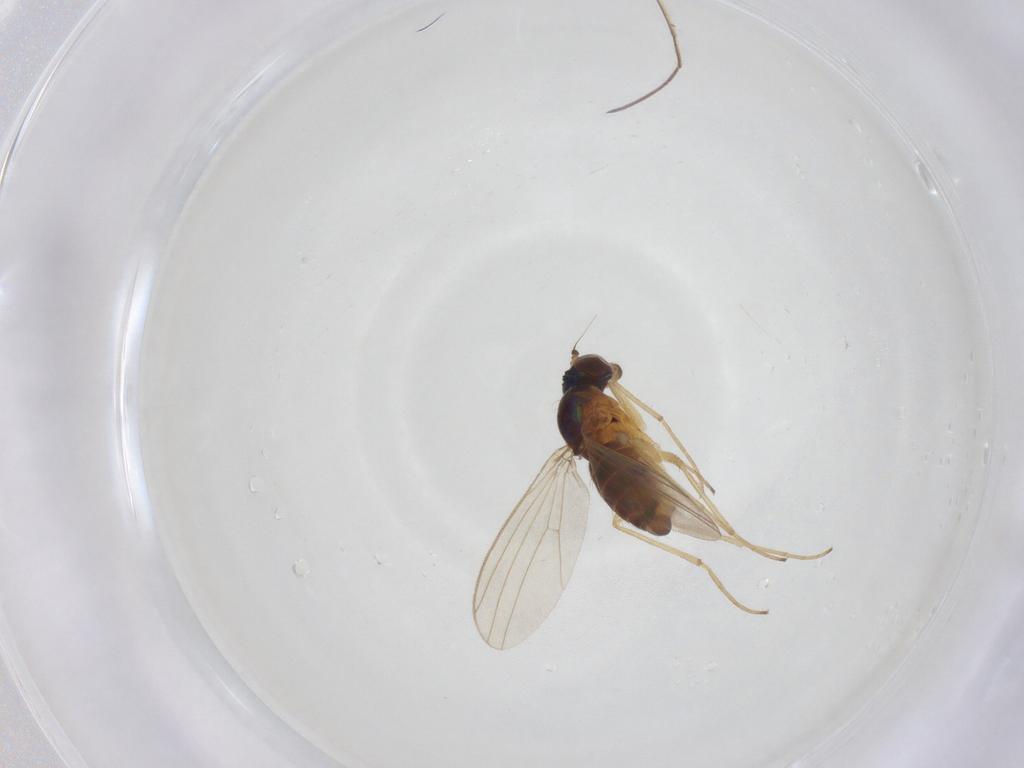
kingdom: Animalia
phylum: Arthropoda
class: Insecta
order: Diptera
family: Dolichopodidae
